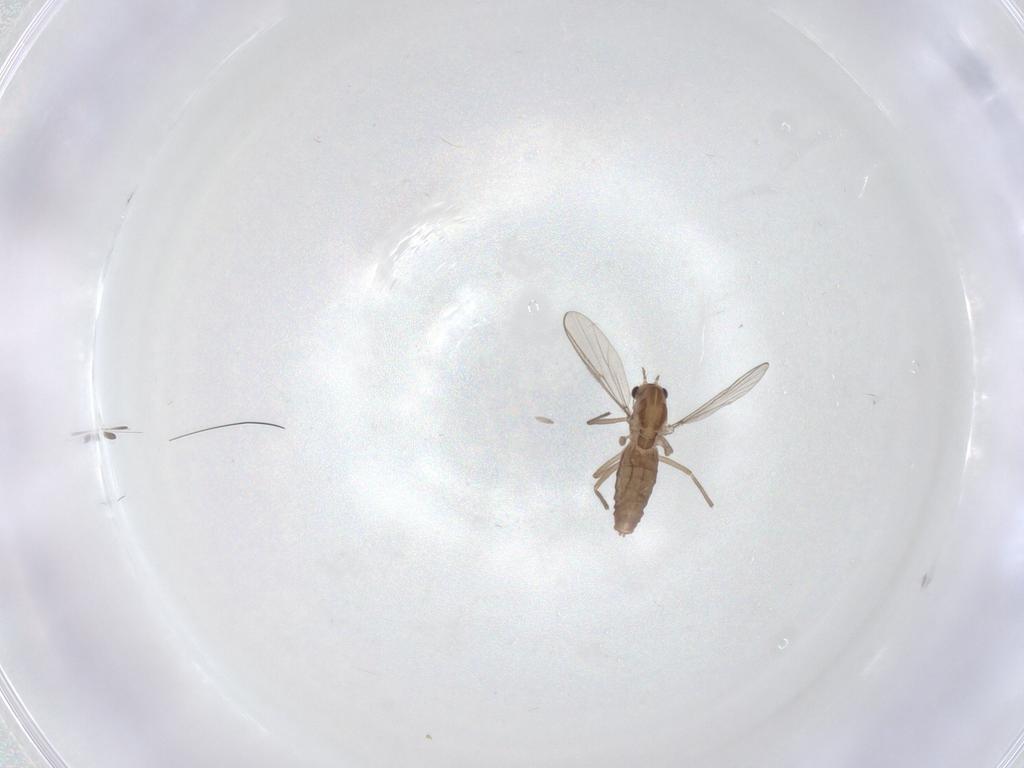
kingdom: Animalia
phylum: Arthropoda
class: Insecta
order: Diptera
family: Chironomidae
